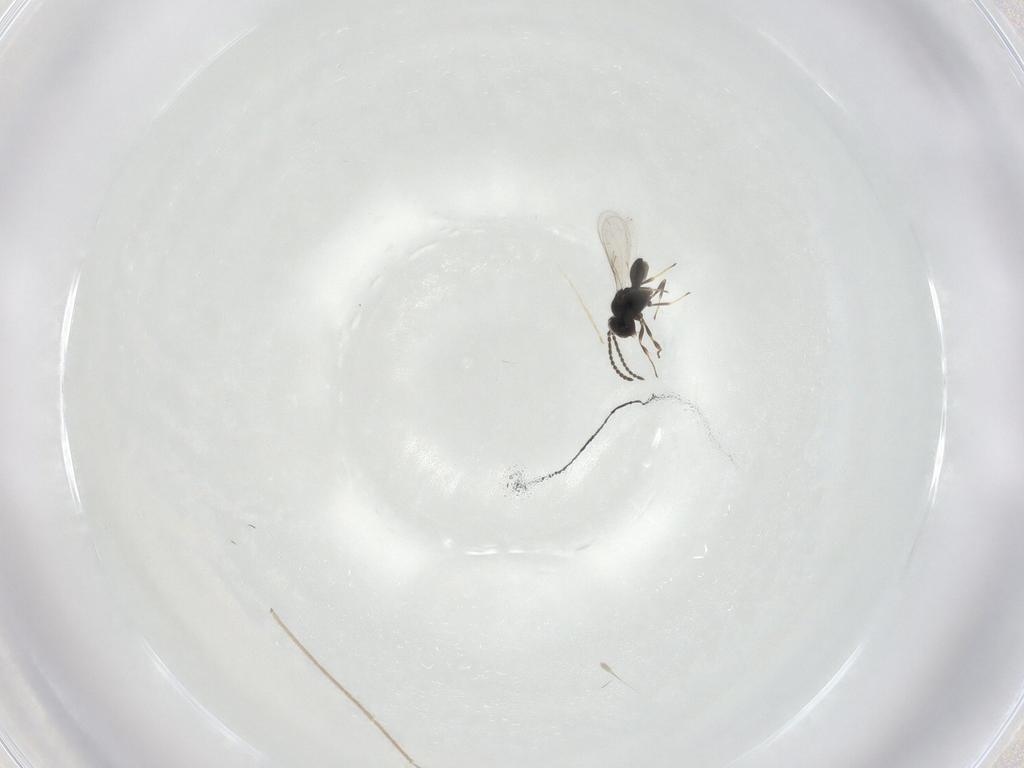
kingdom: Animalia
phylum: Arthropoda
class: Insecta
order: Hymenoptera
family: Scelionidae
